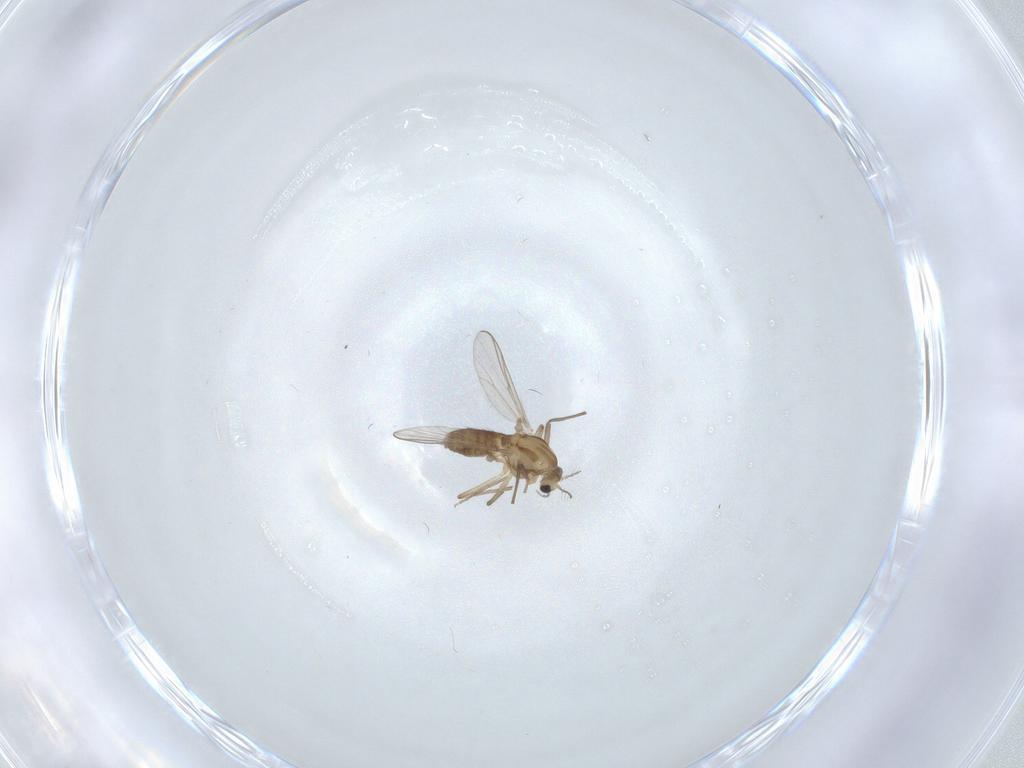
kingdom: Animalia
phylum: Arthropoda
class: Insecta
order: Diptera
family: Chironomidae
